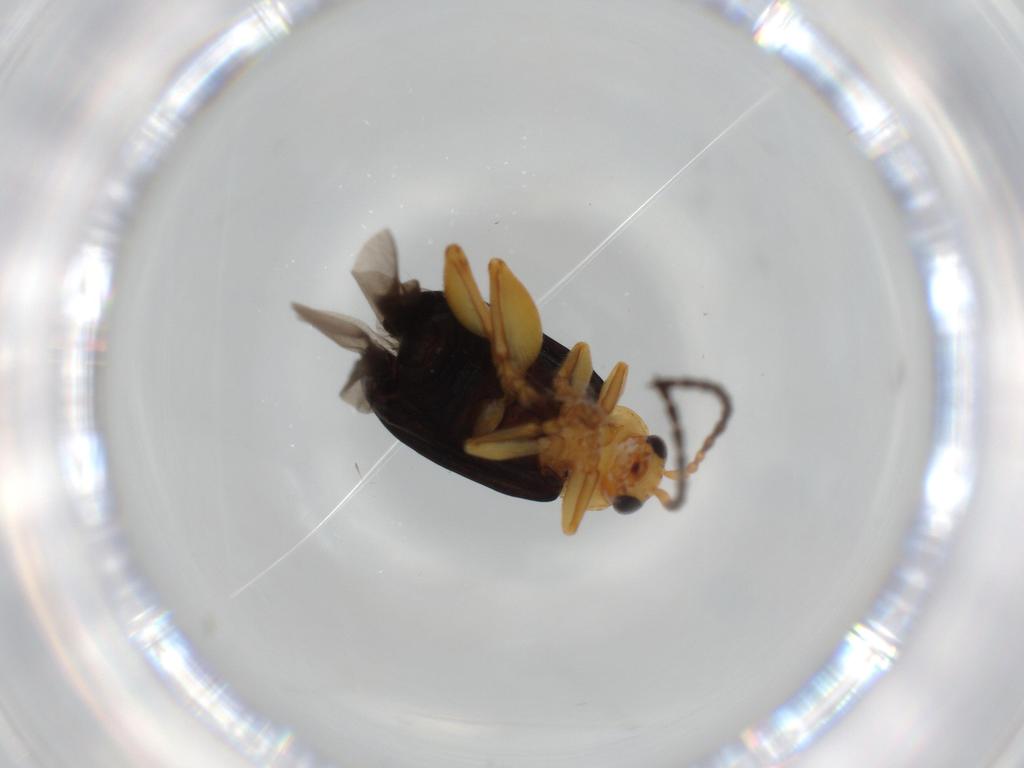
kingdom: Animalia
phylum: Arthropoda
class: Insecta
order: Coleoptera
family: Chrysomelidae
